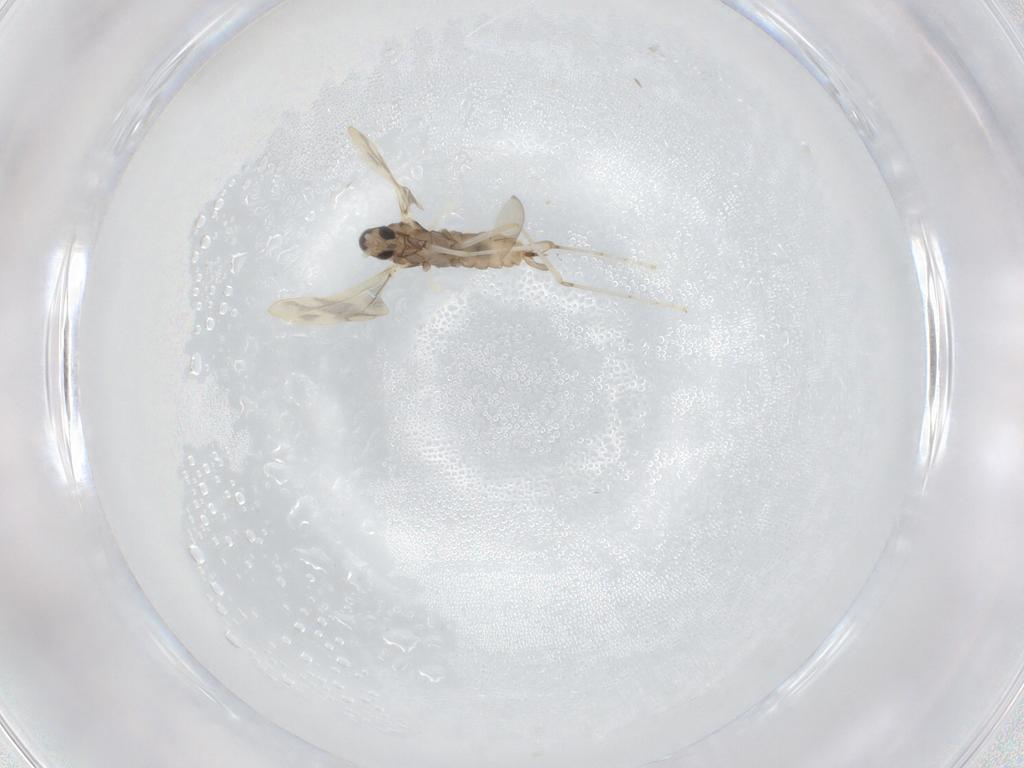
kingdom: Animalia
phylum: Arthropoda
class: Insecta
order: Diptera
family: Cecidomyiidae
